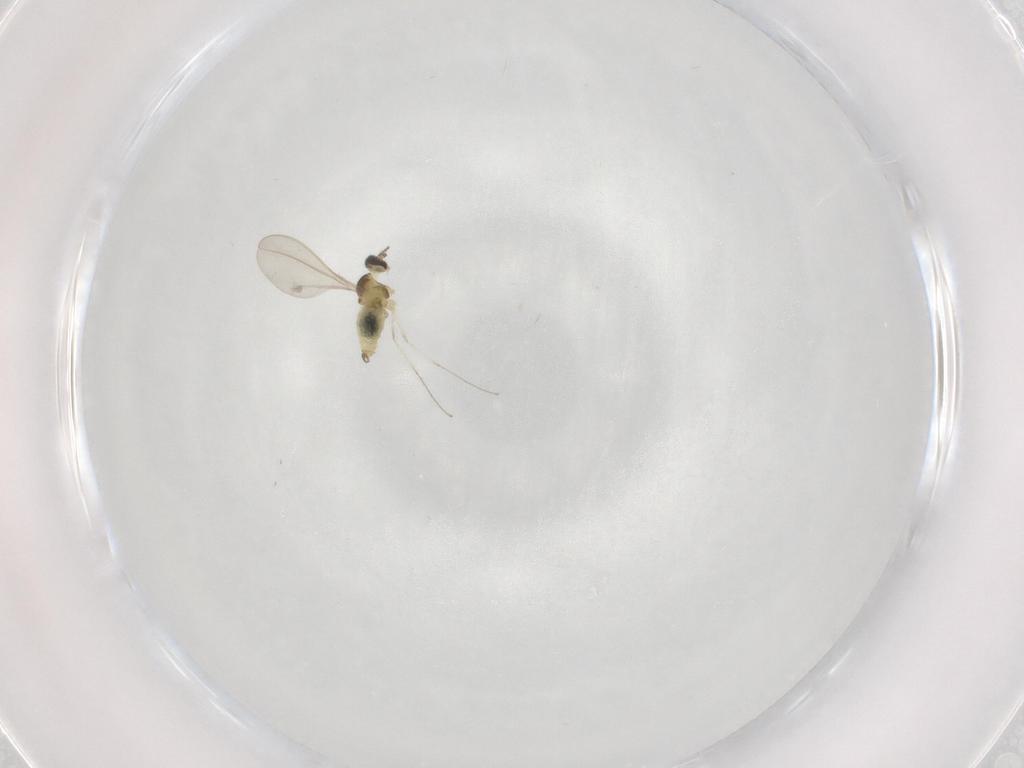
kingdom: Animalia
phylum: Arthropoda
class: Insecta
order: Diptera
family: Cecidomyiidae
